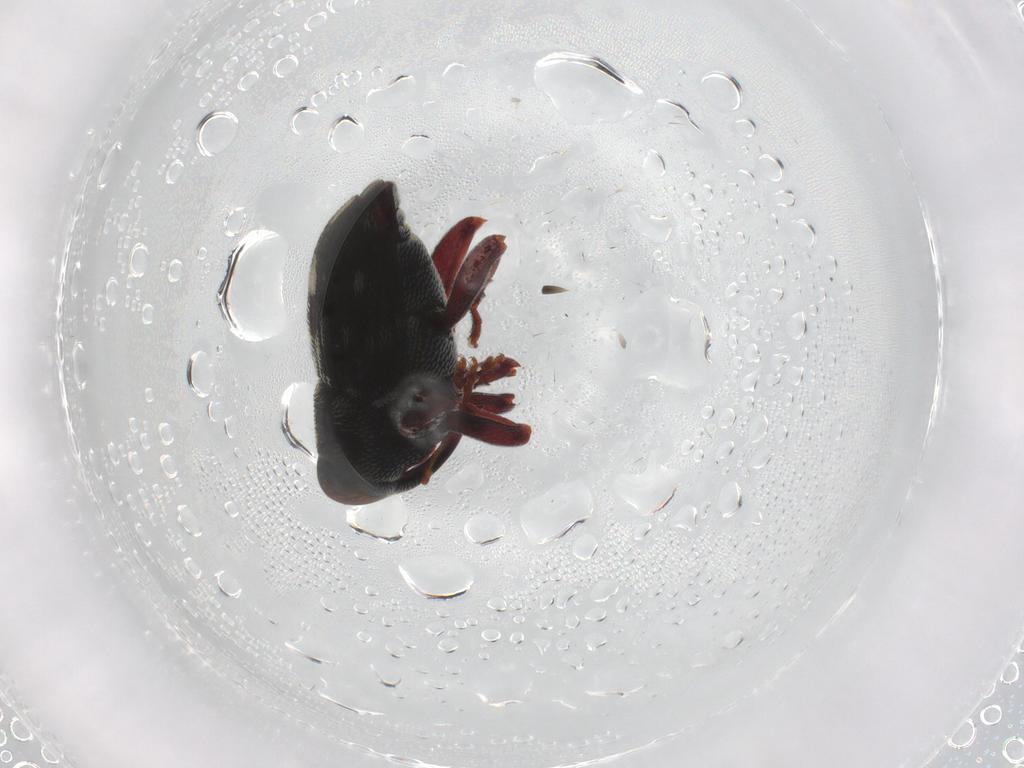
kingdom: Animalia
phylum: Arthropoda
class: Insecta
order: Coleoptera
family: Curculionidae
